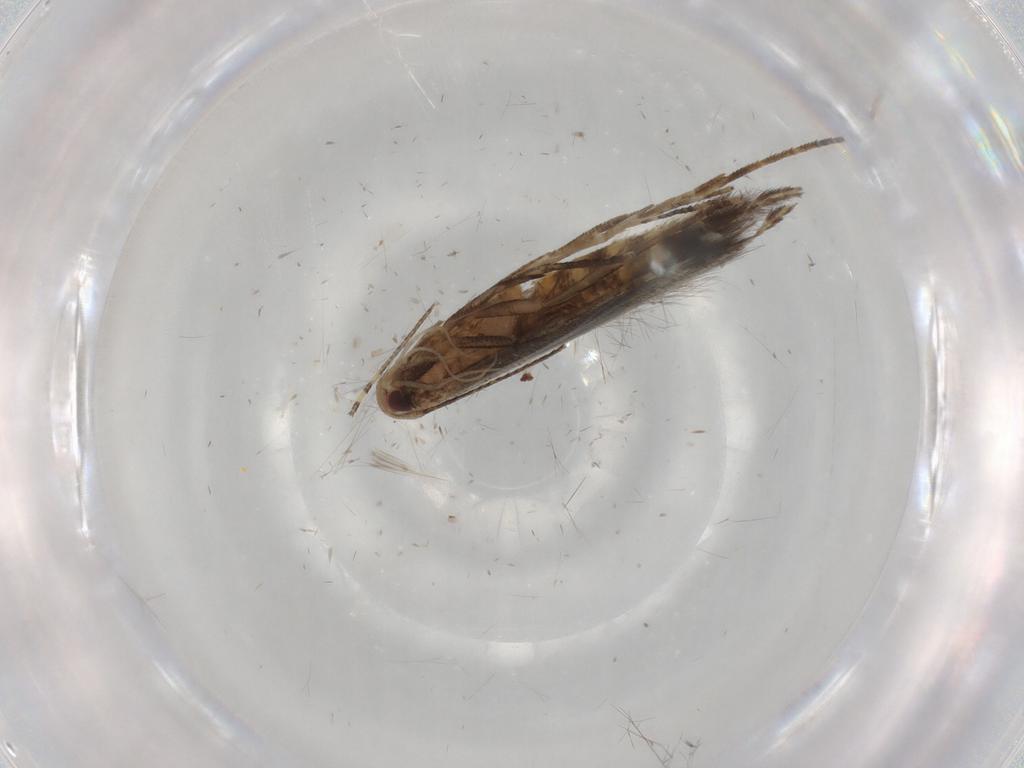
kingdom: Animalia
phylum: Arthropoda
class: Insecta
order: Lepidoptera
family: Cosmopterigidae
